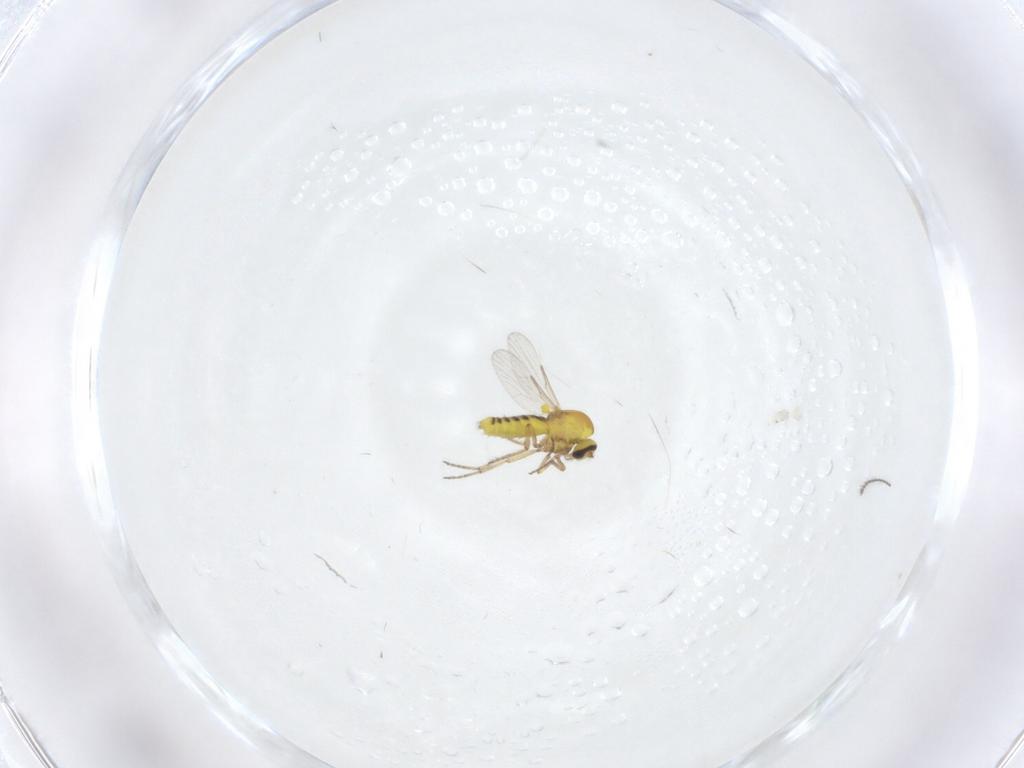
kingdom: Animalia
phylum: Arthropoda
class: Insecta
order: Diptera
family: Ceratopogonidae
